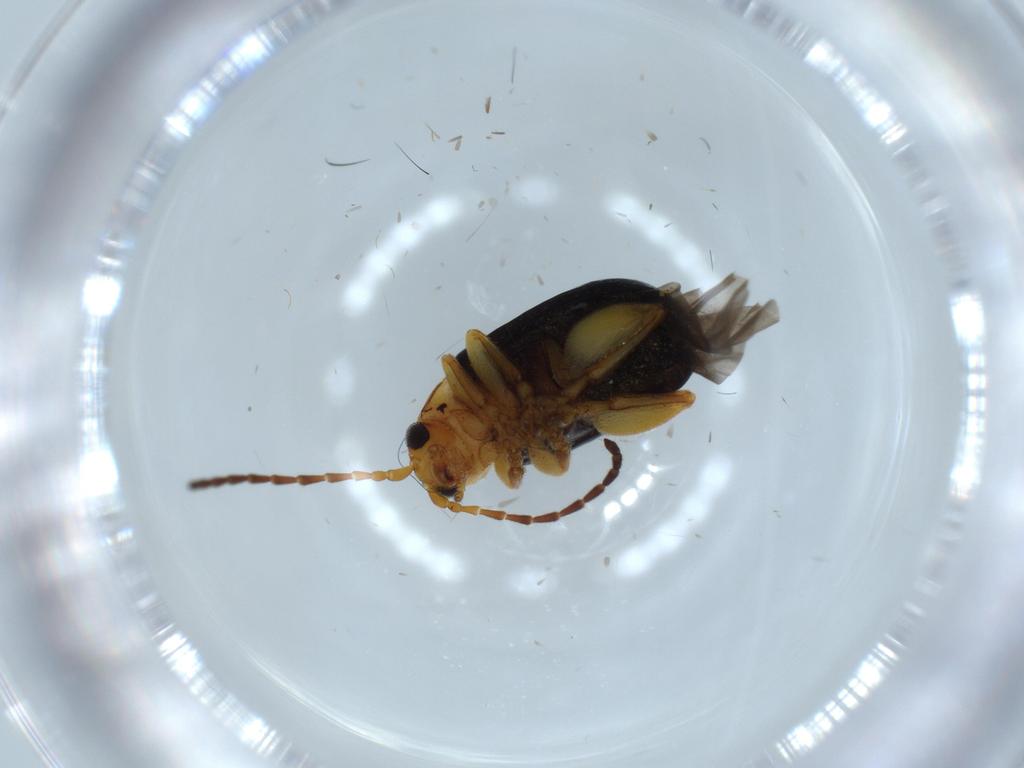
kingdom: Animalia
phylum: Arthropoda
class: Insecta
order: Coleoptera
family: Chrysomelidae
